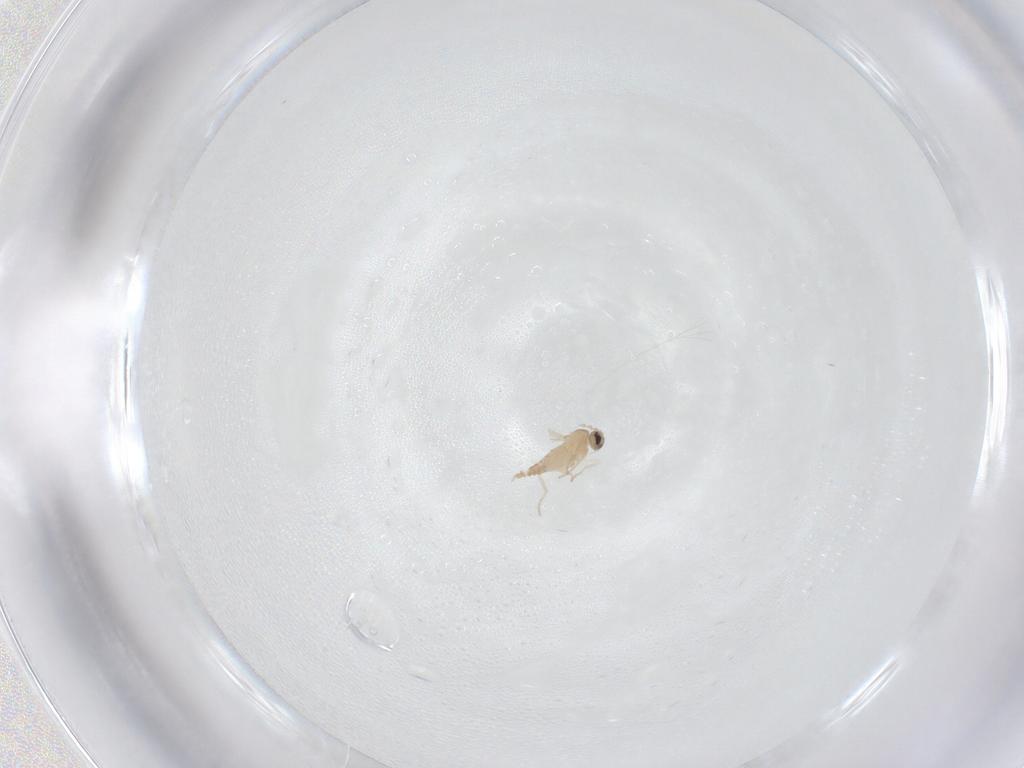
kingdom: Animalia
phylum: Arthropoda
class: Insecta
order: Diptera
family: Cecidomyiidae
